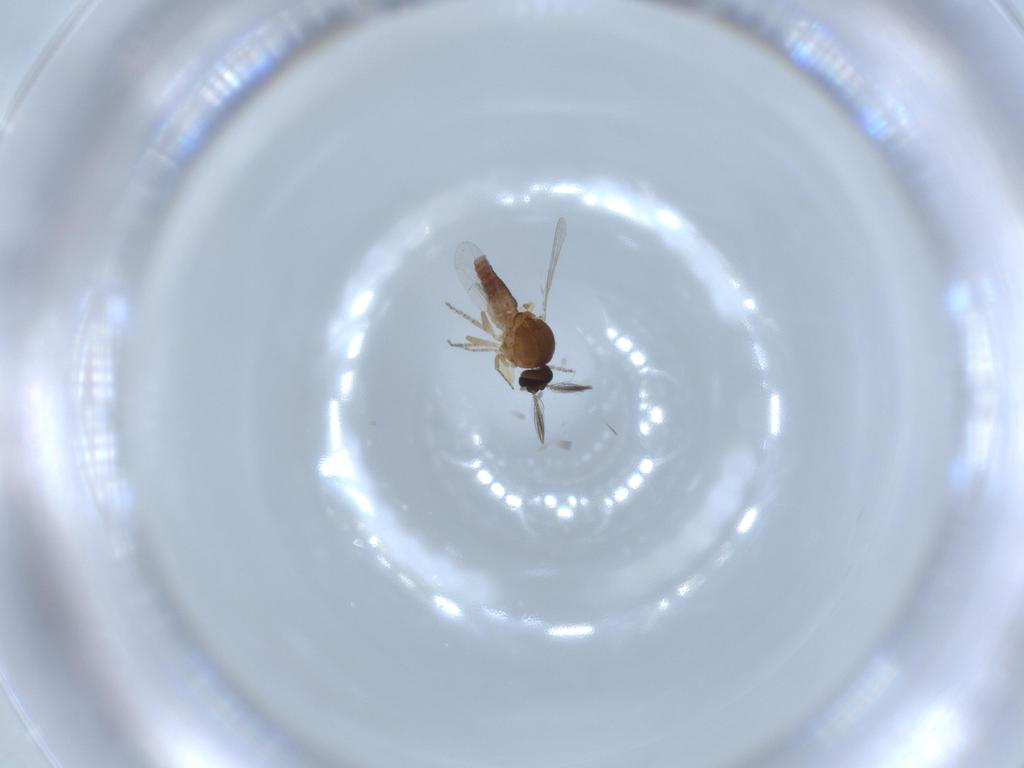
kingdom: Animalia
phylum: Arthropoda
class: Insecta
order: Diptera
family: Ceratopogonidae
